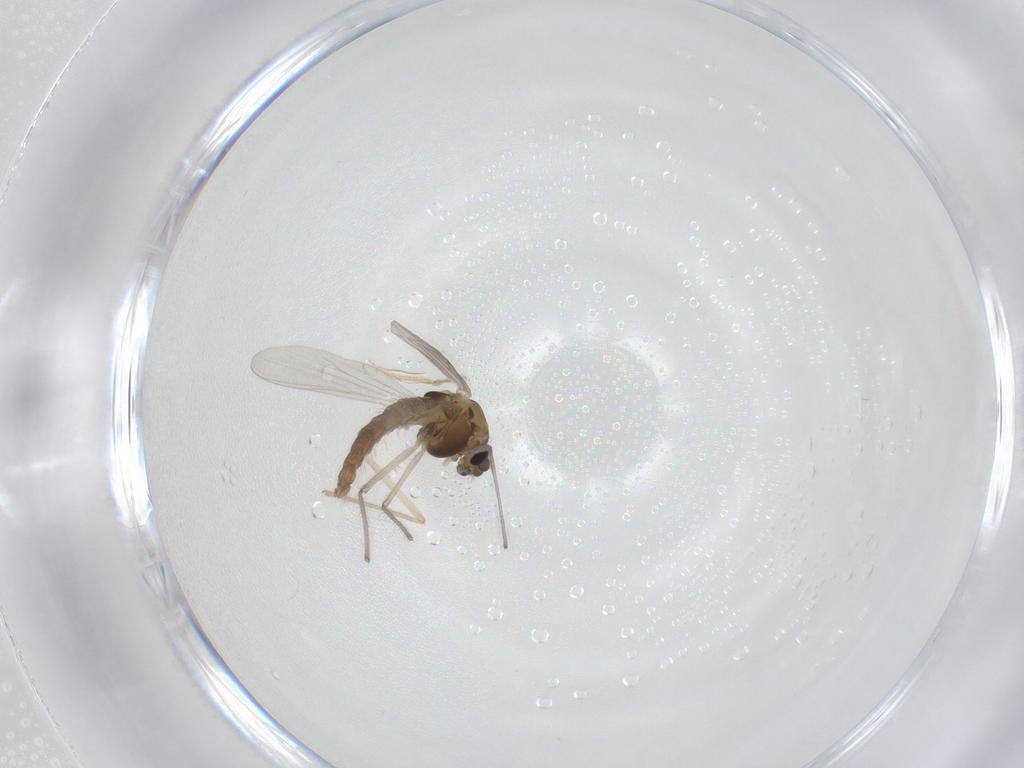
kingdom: Animalia
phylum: Arthropoda
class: Insecta
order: Diptera
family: Chironomidae
